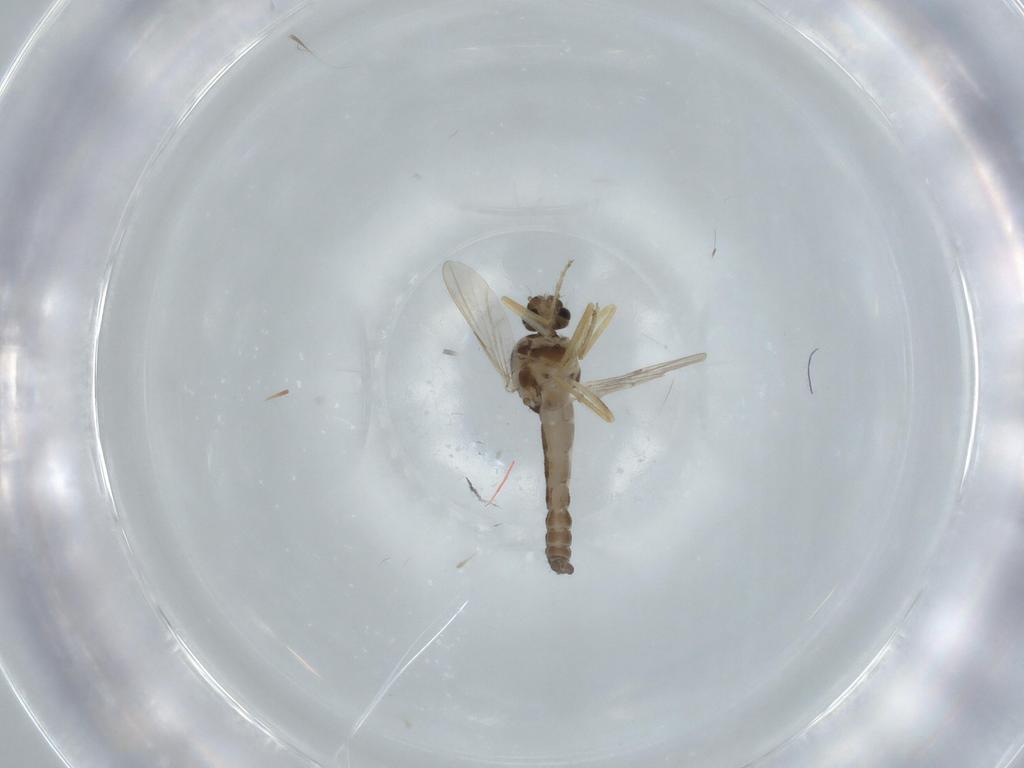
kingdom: Animalia
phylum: Arthropoda
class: Insecta
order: Diptera
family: Ceratopogonidae
